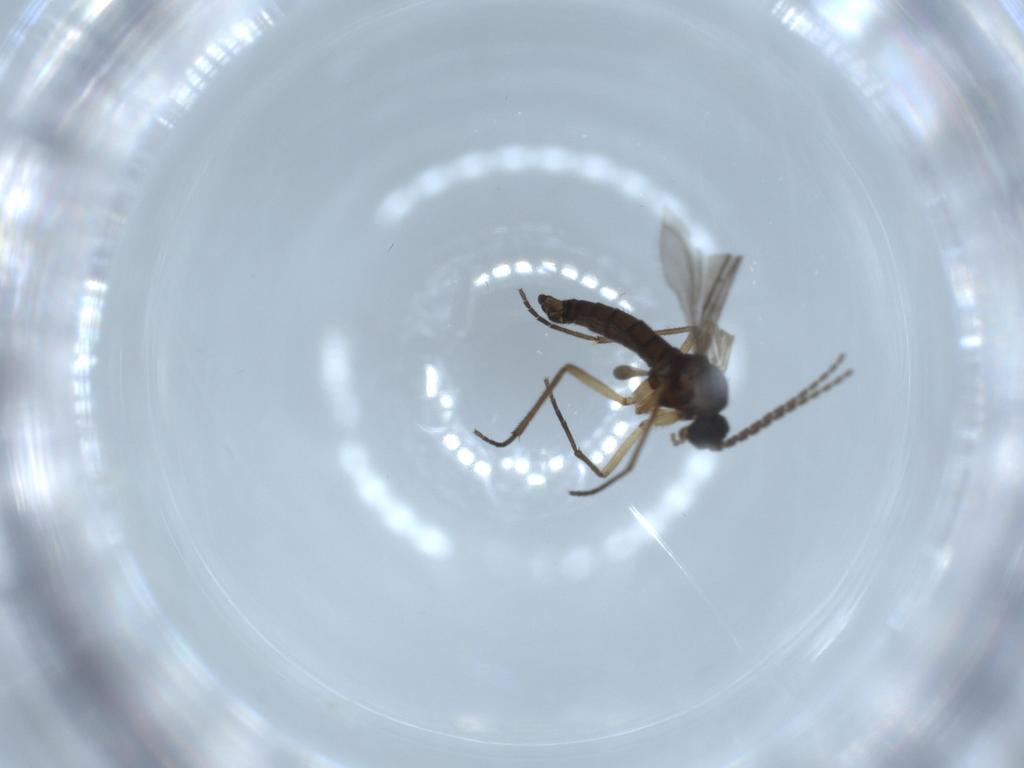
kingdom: Animalia
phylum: Arthropoda
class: Insecta
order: Diptera
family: Sciaridae
